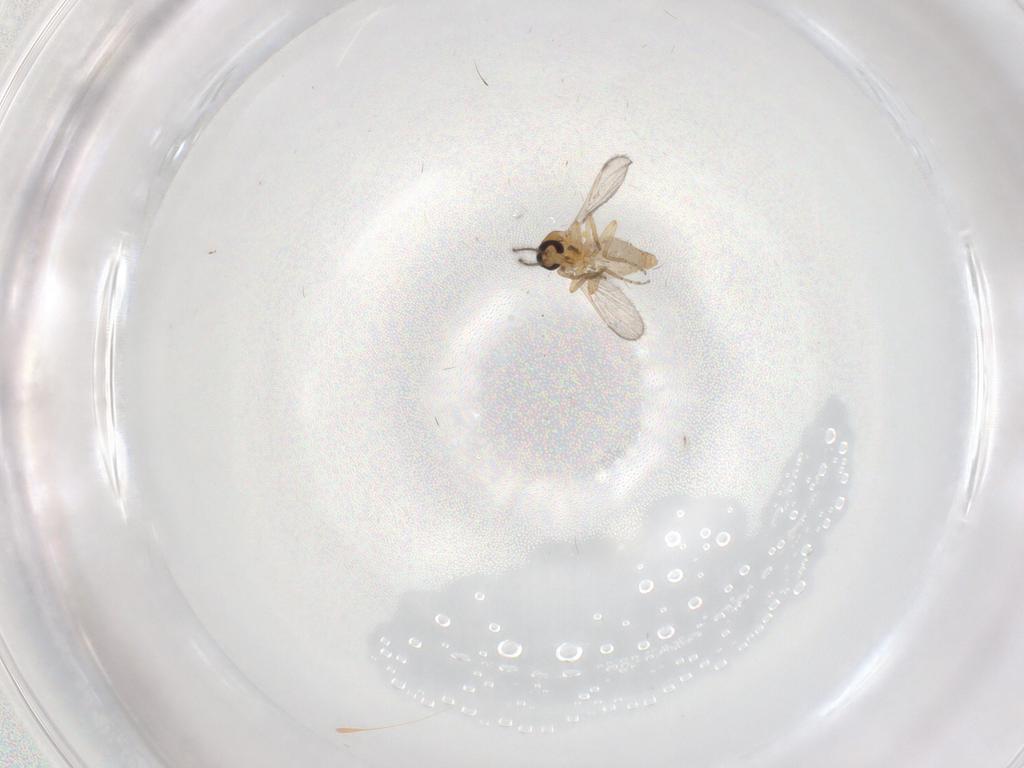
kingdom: Animalia
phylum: Arthropoda
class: Insecta
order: Diptera
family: Ceratopogonidae
